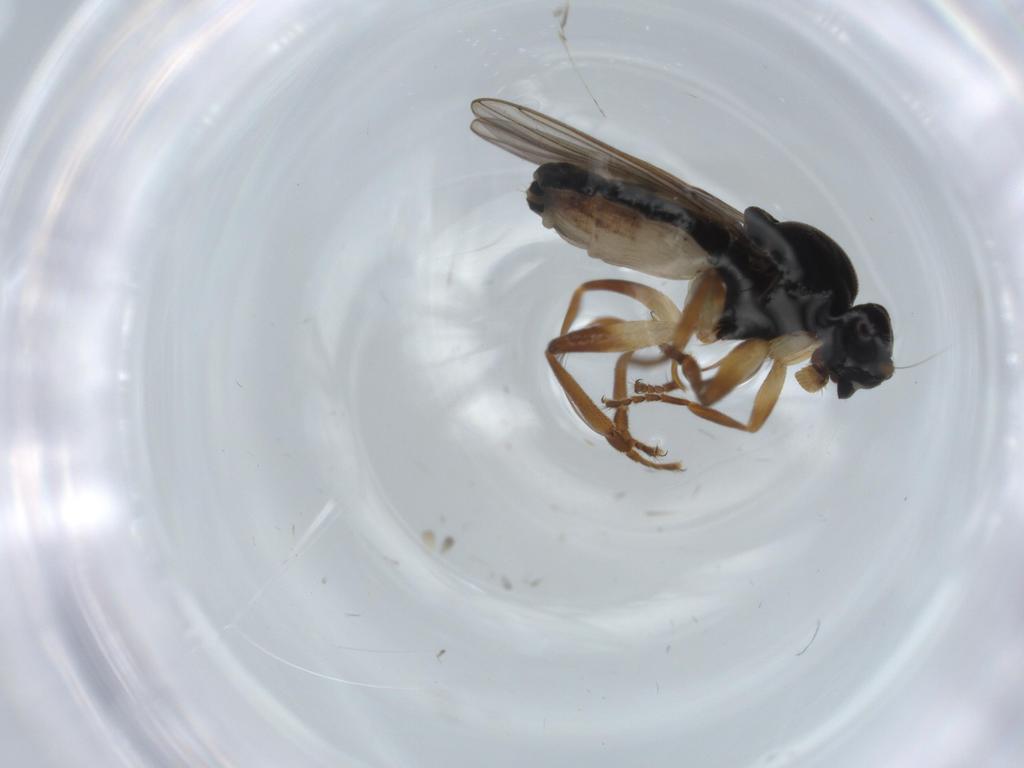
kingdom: Animalia
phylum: Arthropoda
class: Insecta
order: Diptera
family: Sphaeroceridae
